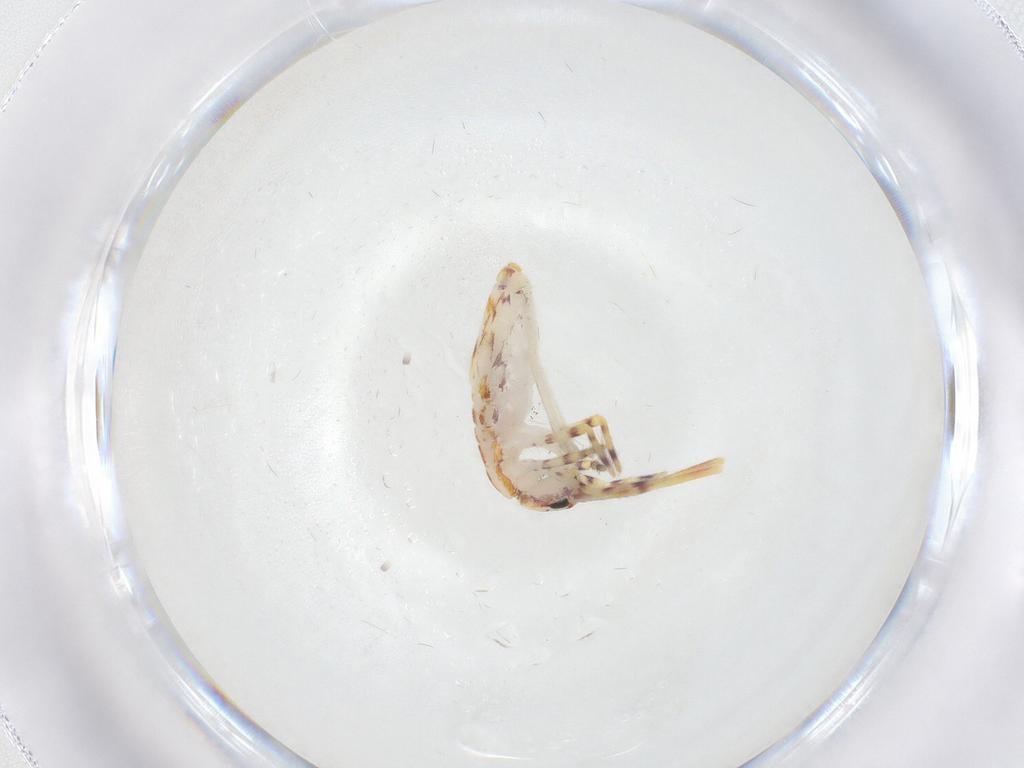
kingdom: Animalia
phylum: Arthropoda
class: Collembola
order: Entomobryomorpha
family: Entomobryidae
